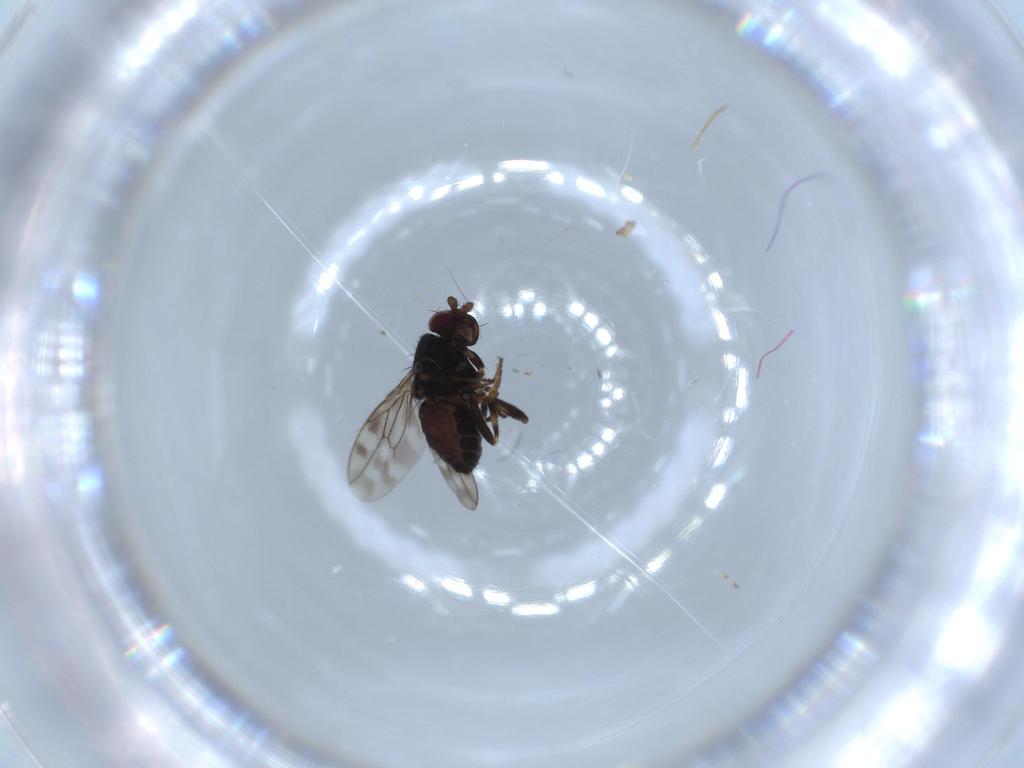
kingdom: Animalia
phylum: Arthropoda
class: Insecta
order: Diptera
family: Sphaeroceridae
